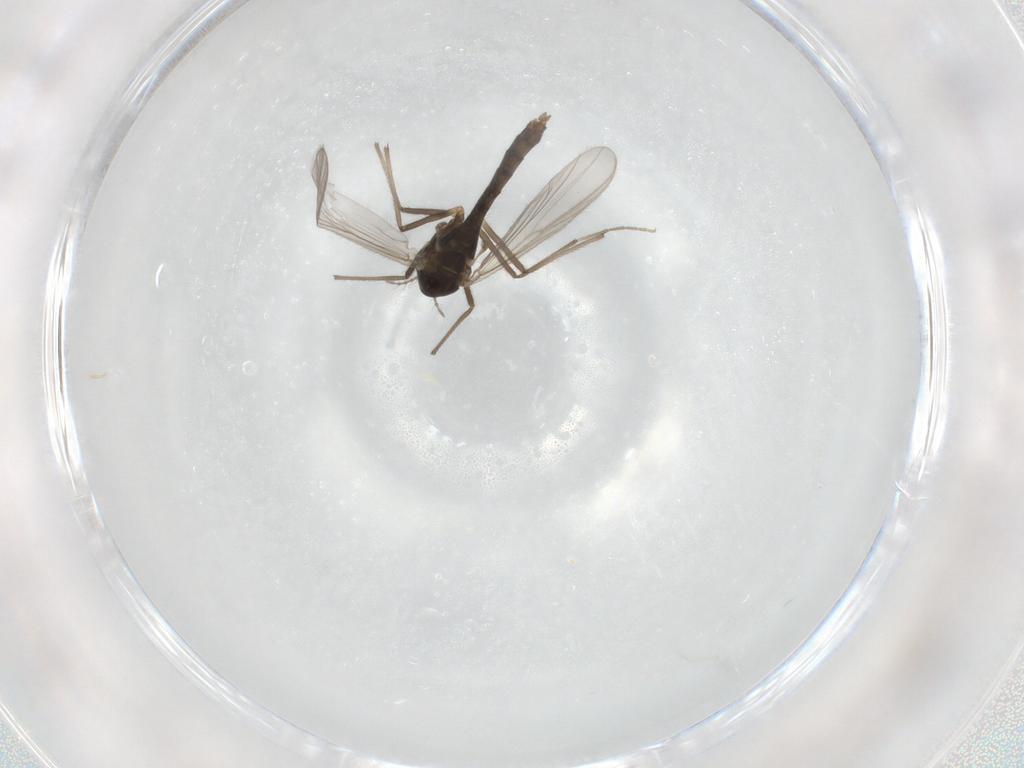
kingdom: Animalia
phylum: Arthropoda
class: Insecta
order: Diptera
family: Chironomidae
